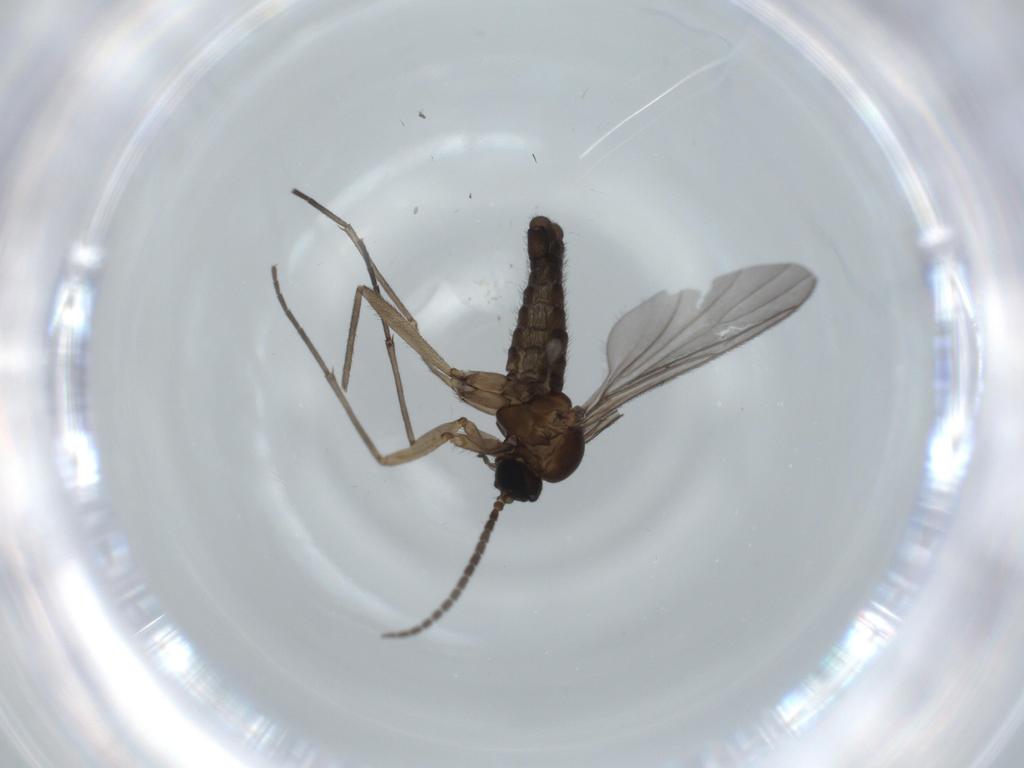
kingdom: Animalia
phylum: Arthropoda
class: Insecta
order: Diptera
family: Sciaridae
